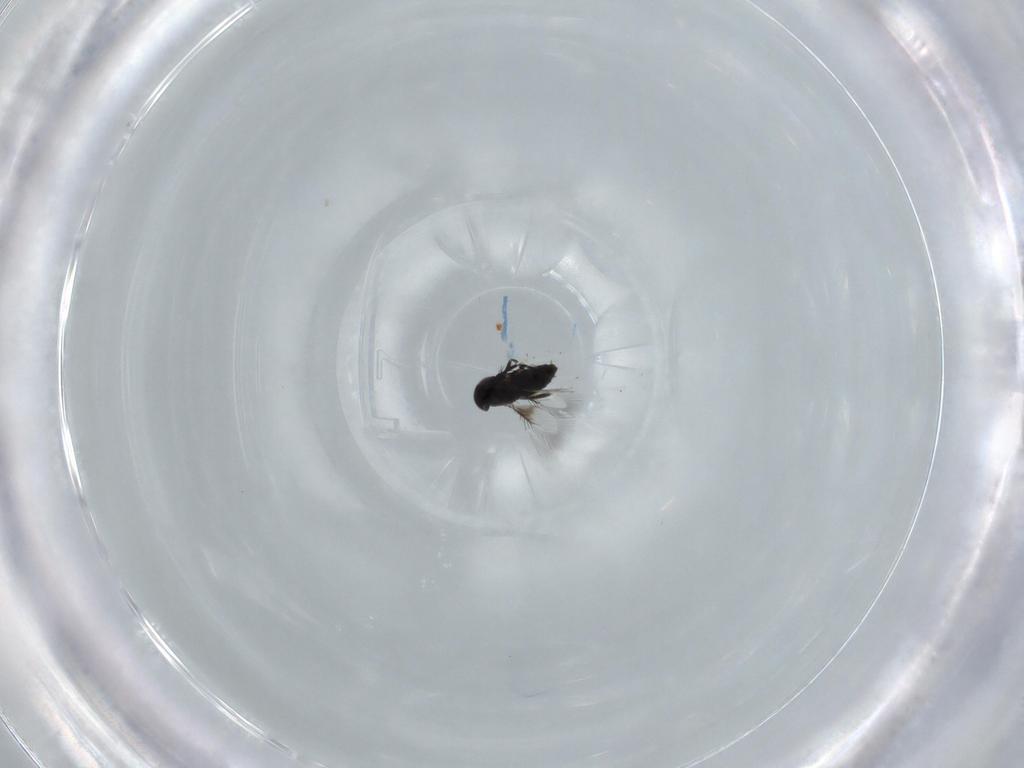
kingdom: Animalia
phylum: Arthropoda
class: Insecta
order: Hymenoptera
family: Signiphoridae
